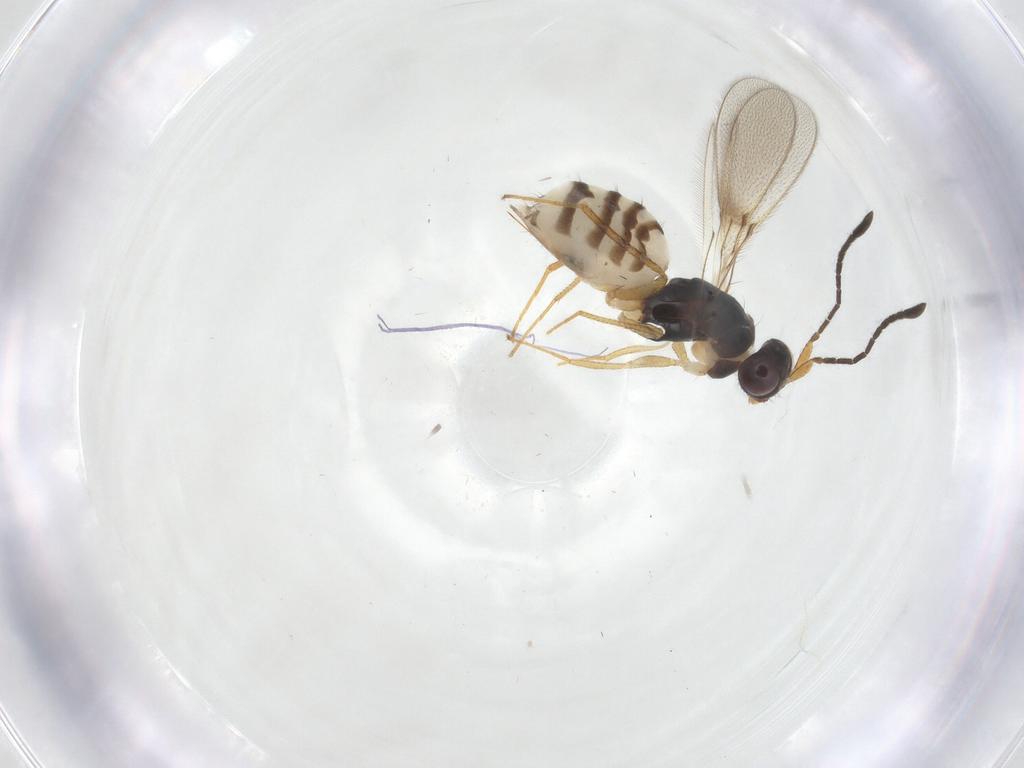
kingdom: Animalia
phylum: Arthropoda
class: Insecta
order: Hymenoptera
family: Mymaridae
